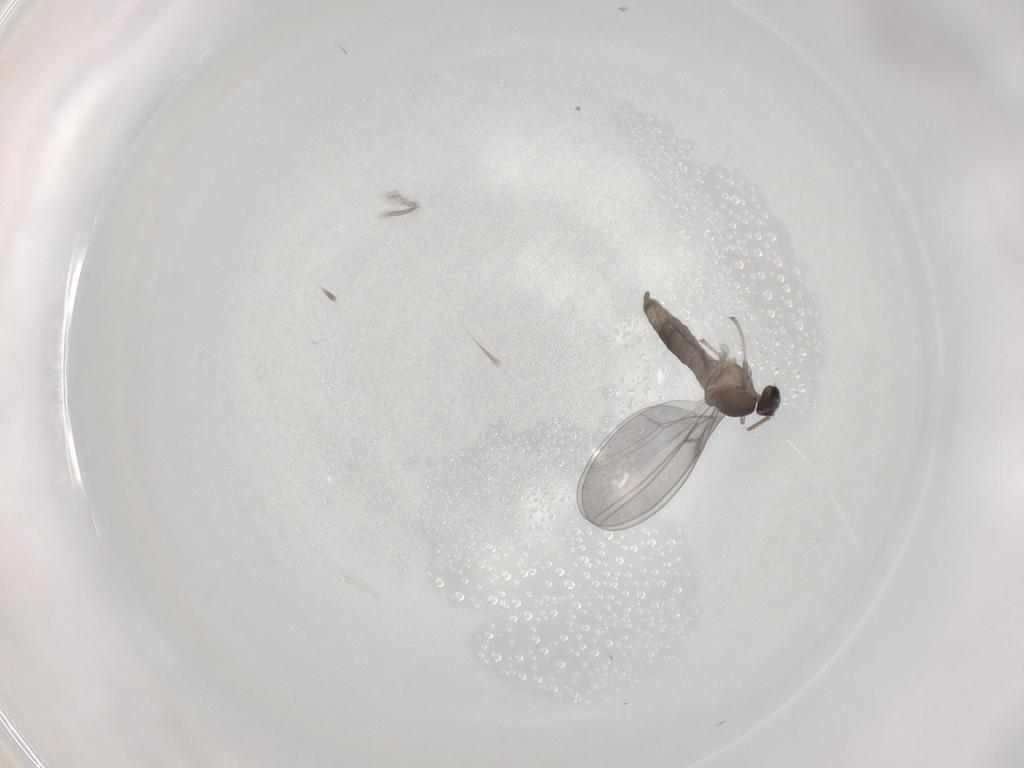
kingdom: Animalia
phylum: Arthropoda
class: Insecta
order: Diptera
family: Cecidomyiidae
